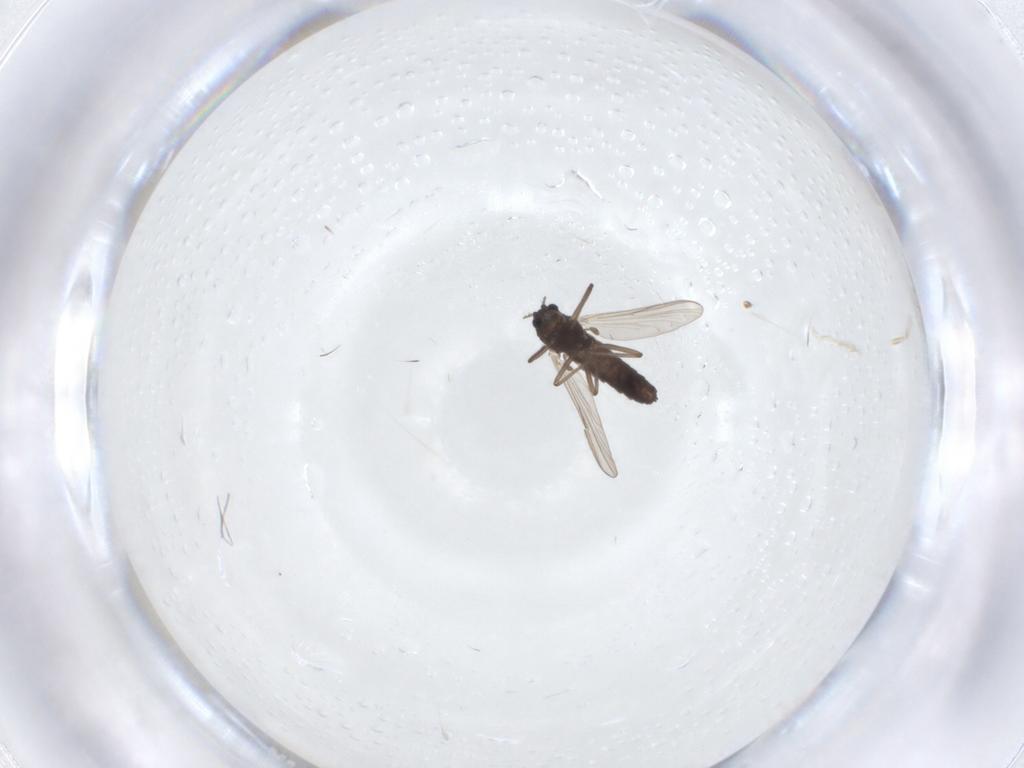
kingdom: Animalia
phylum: Arthropoda
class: Insecta
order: Diptera
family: Chironomidae
